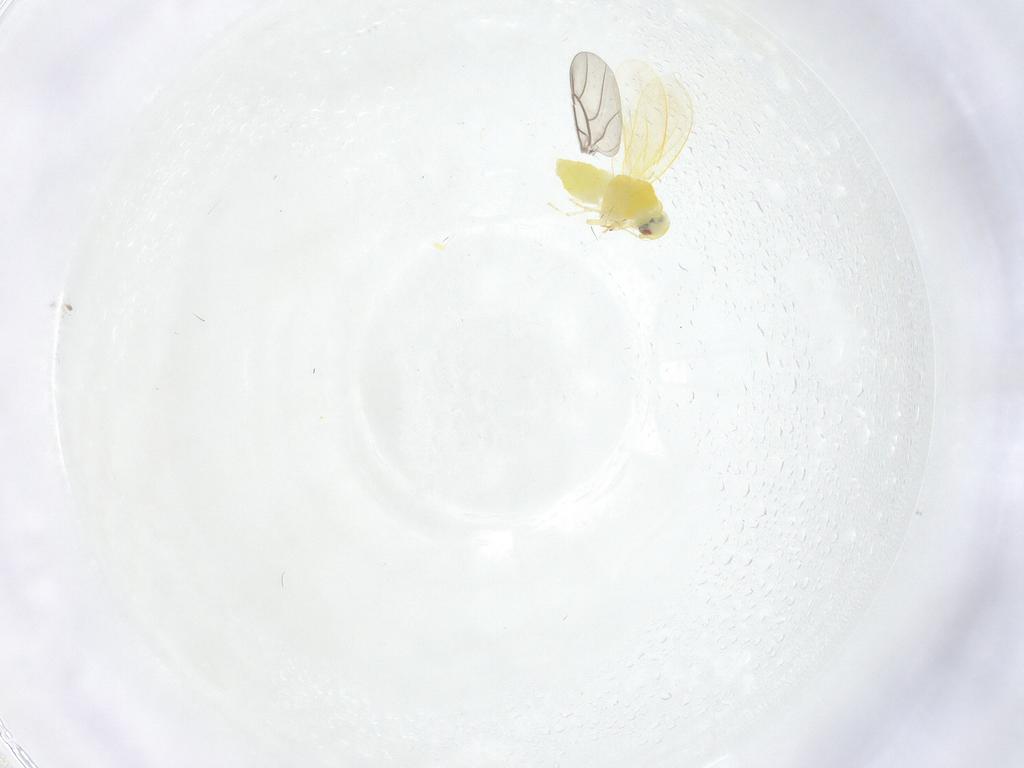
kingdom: Animalia
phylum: Arthropoda
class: Insecta
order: Hemiptera
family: Aleyrodidae
